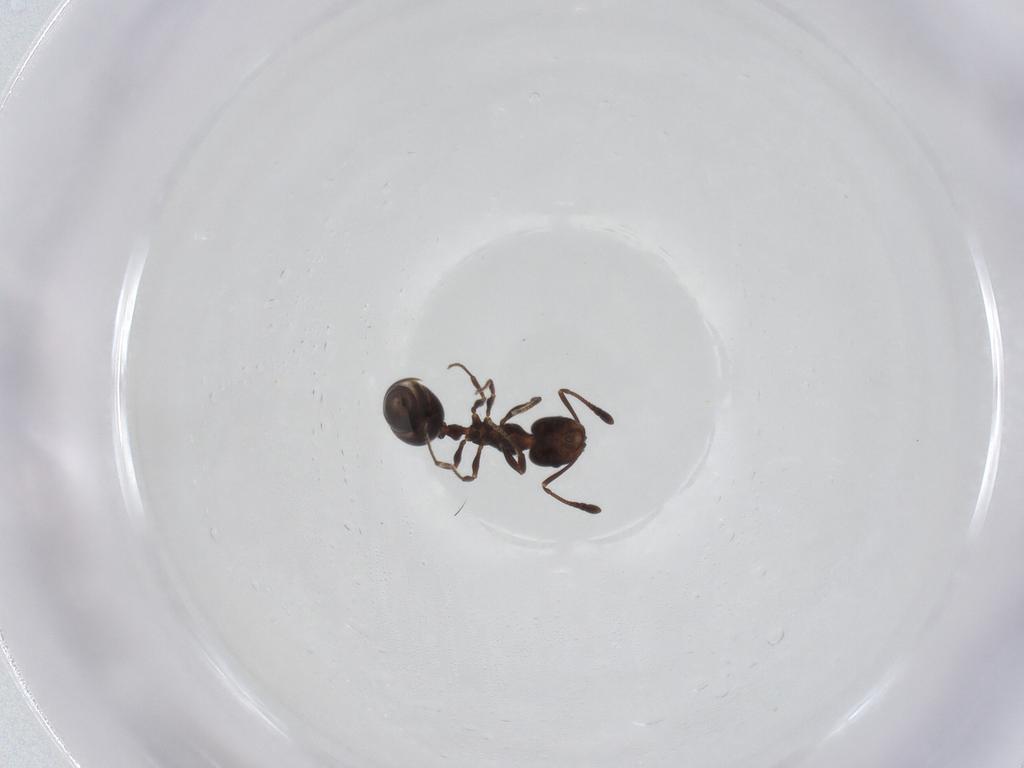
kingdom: Animalia
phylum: Arthropoda
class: Insecta
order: Hymenoptera
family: Formicidae
